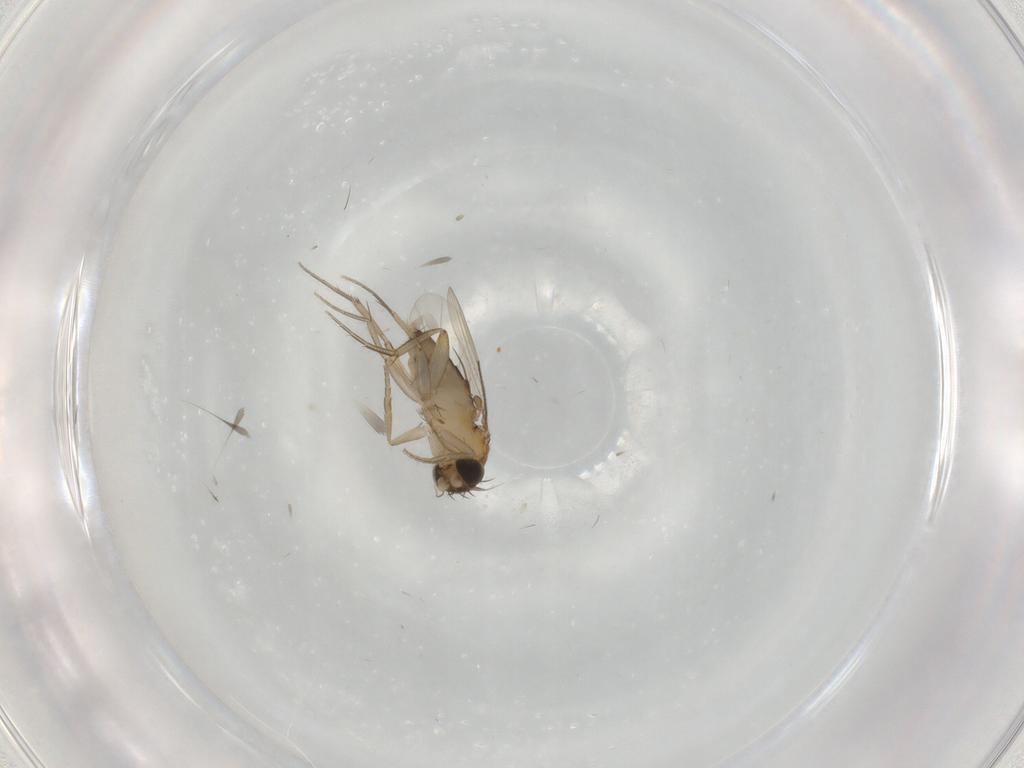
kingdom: Animalia
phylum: Arthropoda
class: Insecta
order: Diptera
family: Phoridae
